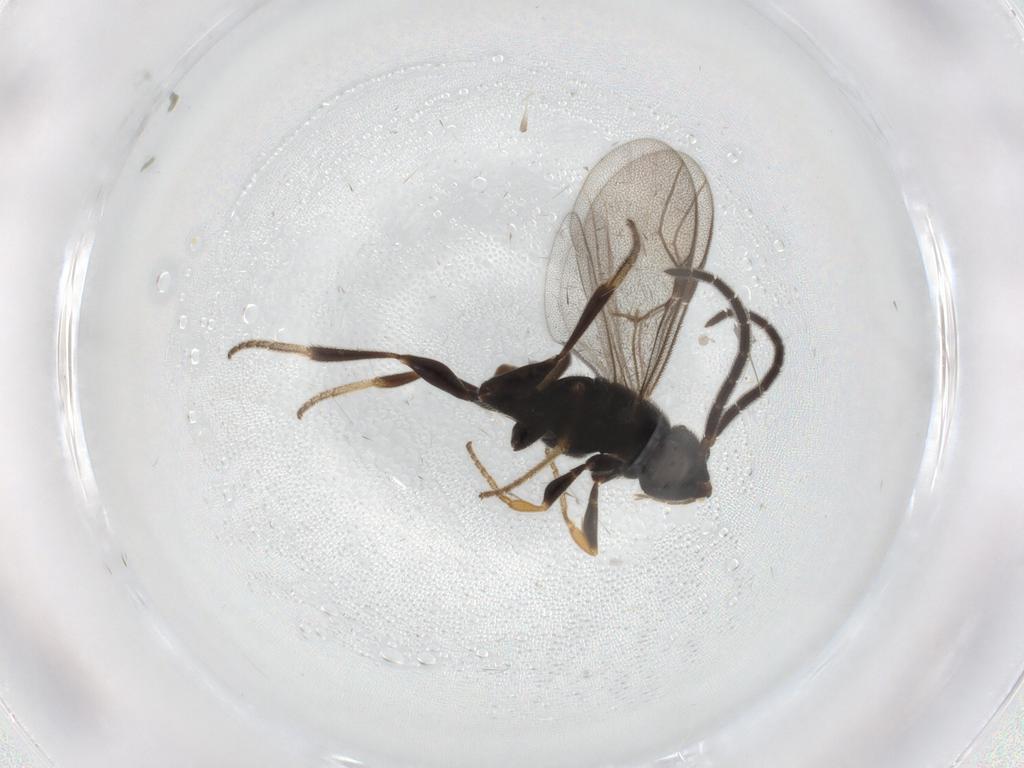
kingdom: Animalia
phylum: Arthropoda
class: Insecta
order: Hymenoptera
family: Dryinidae
